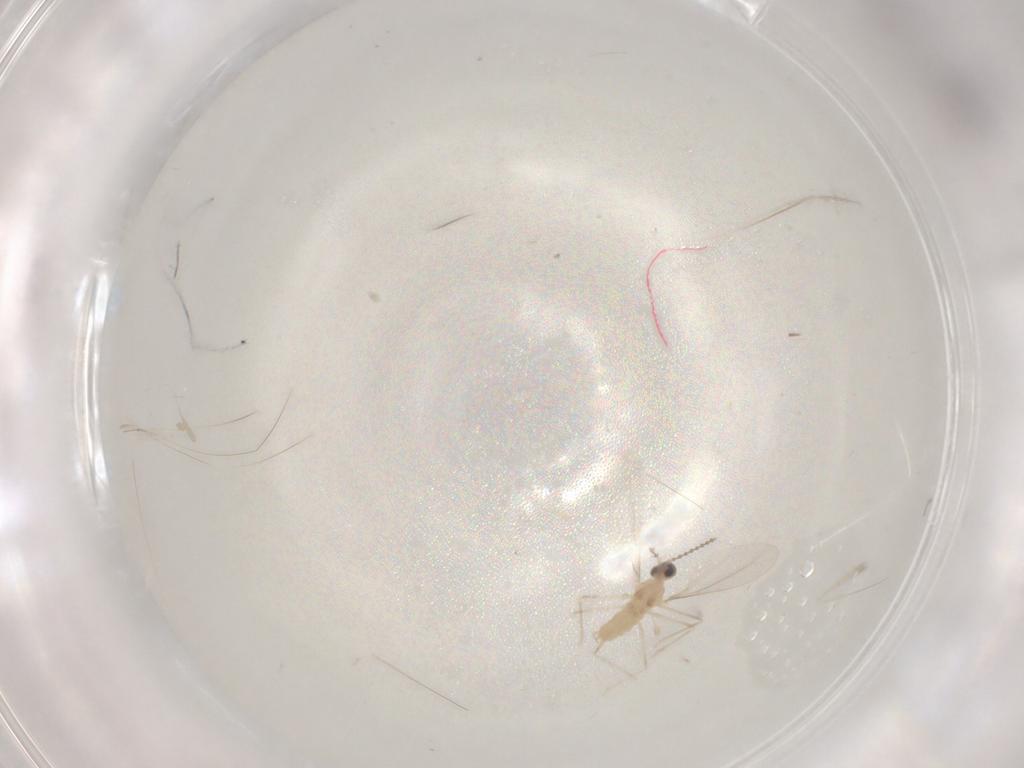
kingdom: Animalia
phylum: Arthropoda
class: Insecta
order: Diptera
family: Cecidomyiidae
